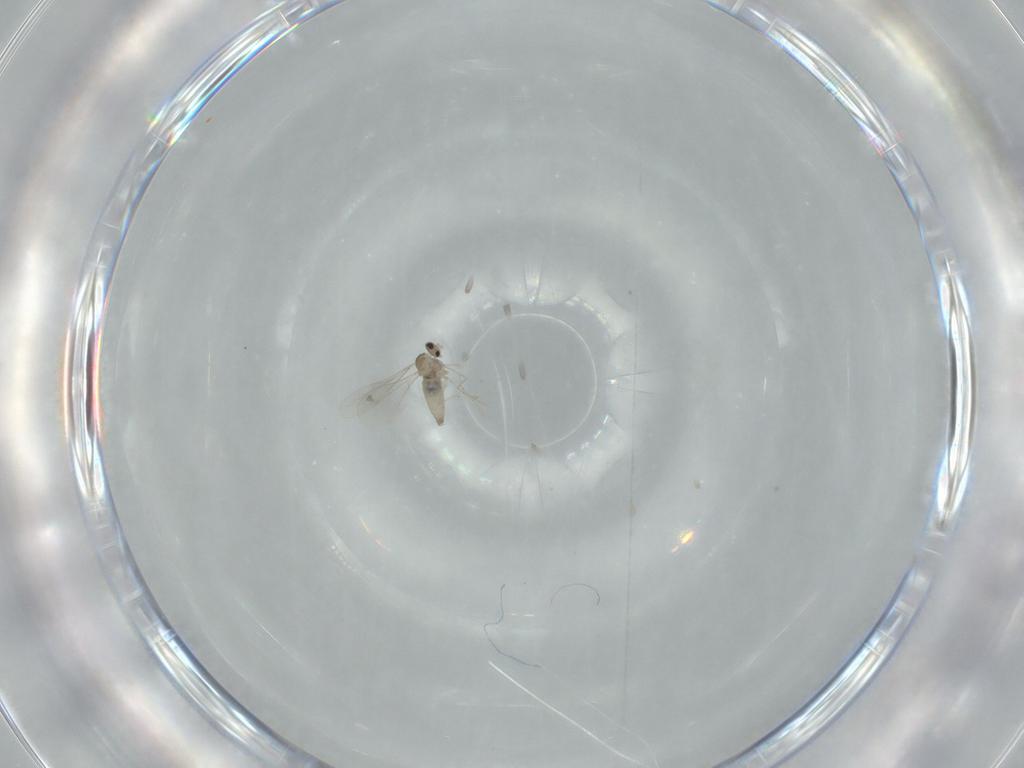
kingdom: Animalia
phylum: Arthropoda
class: Insecta
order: Diptera
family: Cecidomyiidae
